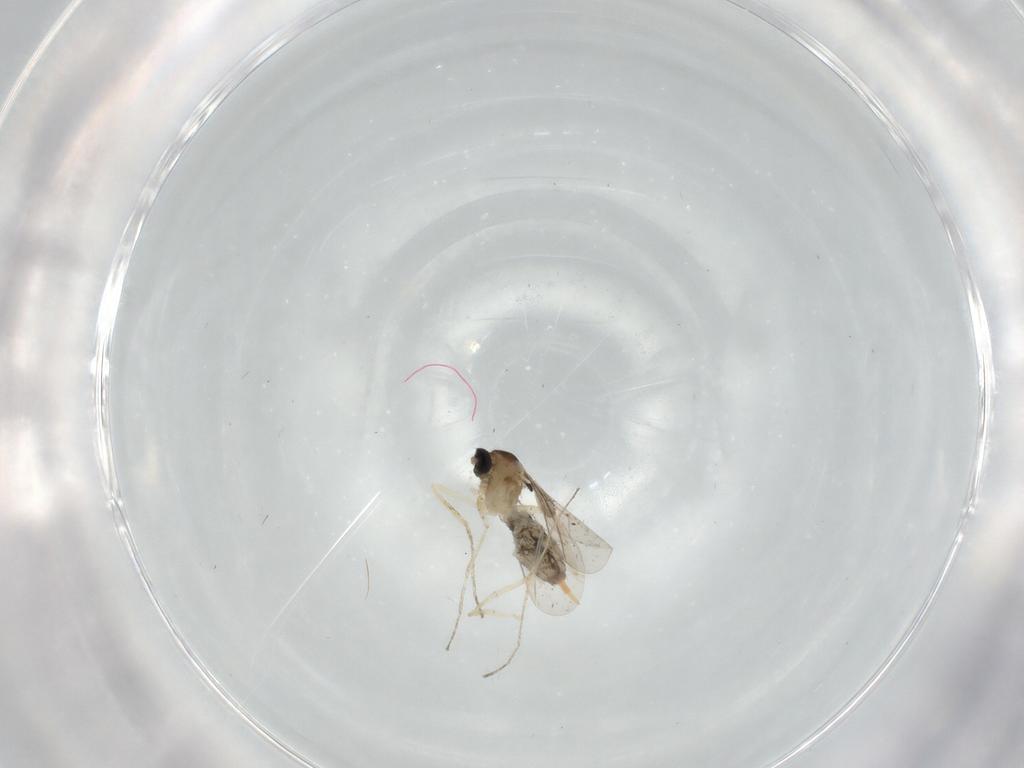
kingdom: Animalia
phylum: Arthropoda
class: Insecta
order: Diptera
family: Cecidomyiidae
